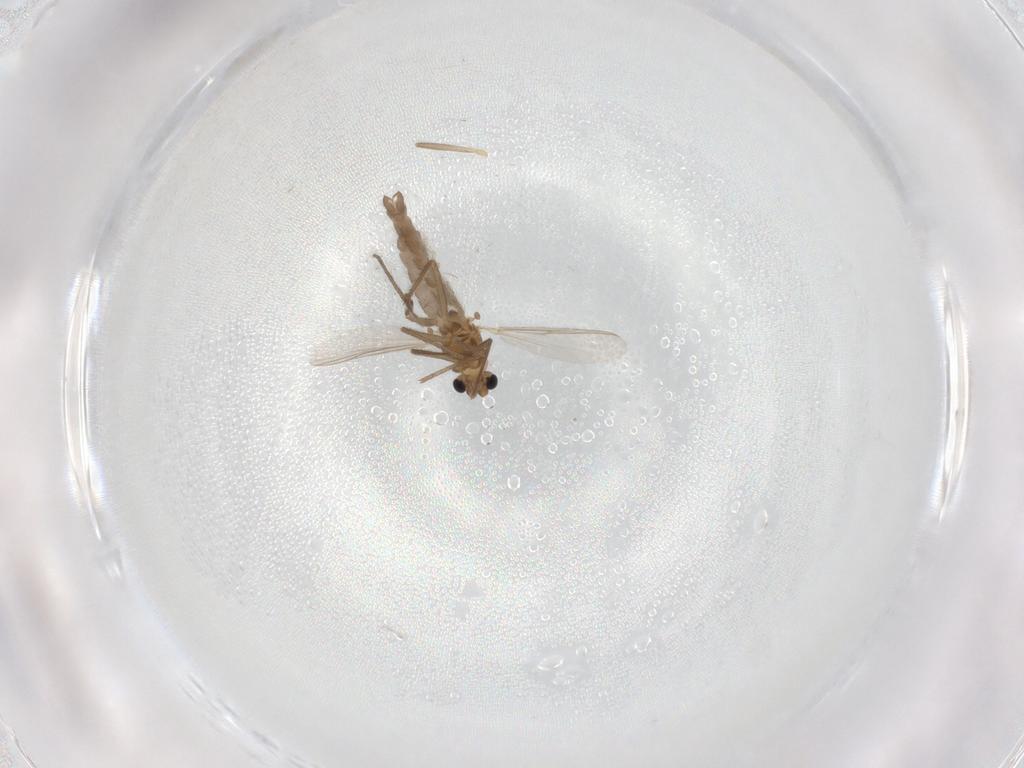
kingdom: Animalia
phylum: Arthropoda
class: Insecta
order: Diptera
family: Chironomidae
